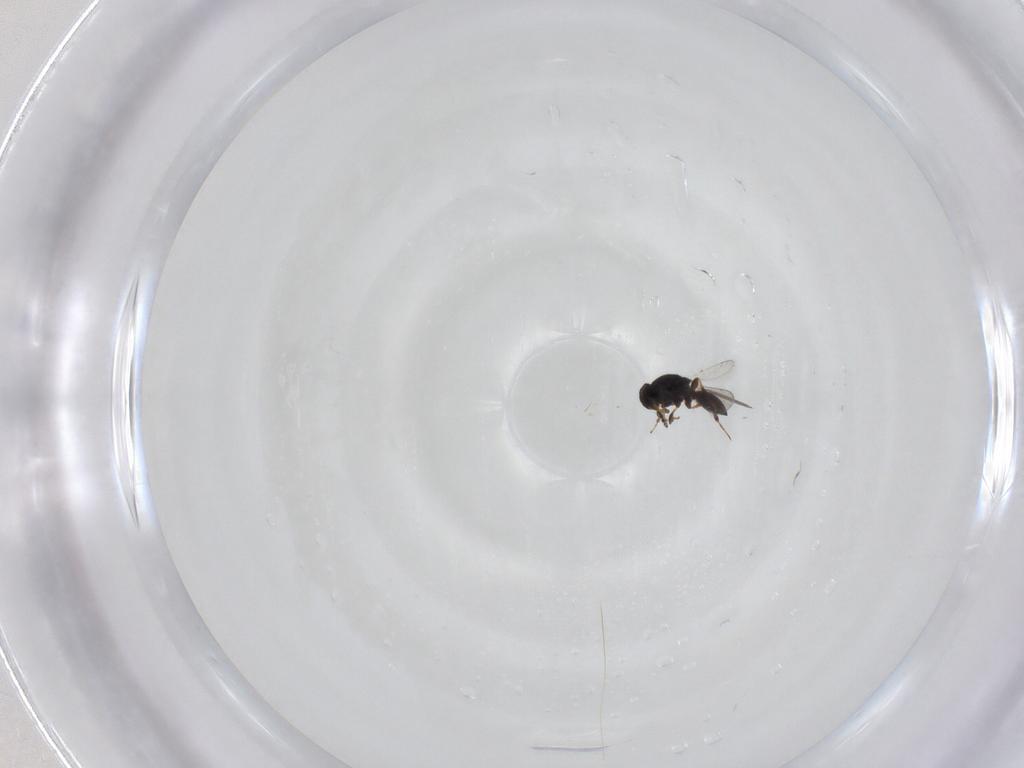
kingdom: Animalia
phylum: Arthropoda
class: Insecta
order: Hymenoptera
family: Platygastridae
